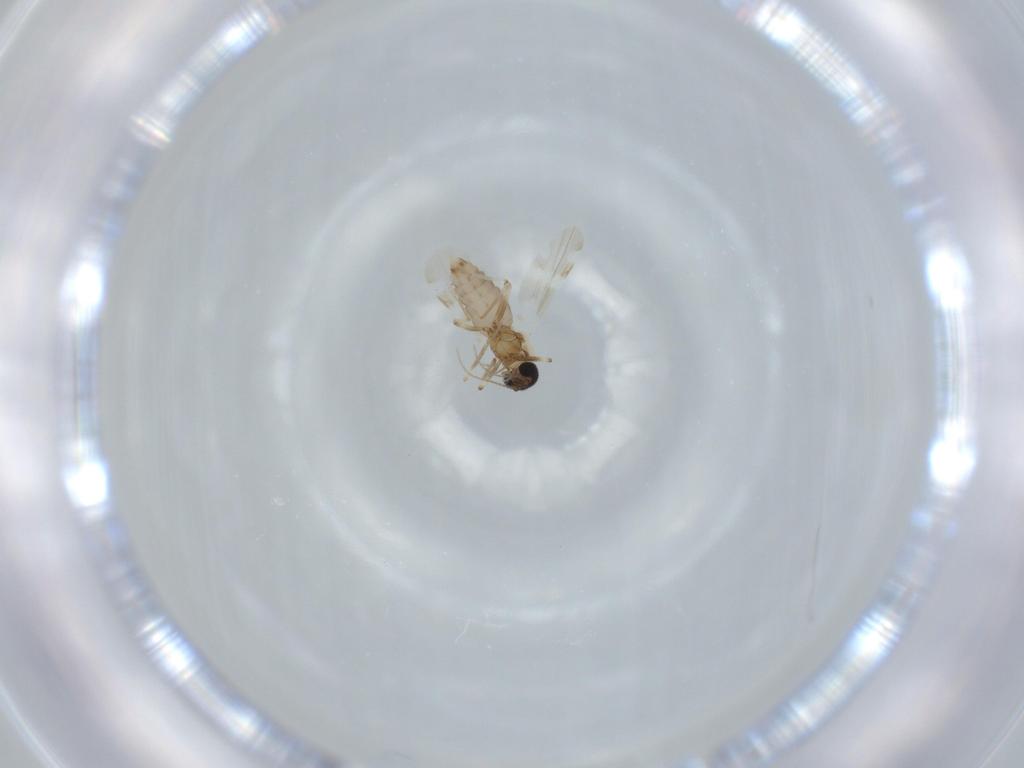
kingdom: Animalia
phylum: Arthropoda
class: Insecta
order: Diptera
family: Ceratopogonidae
